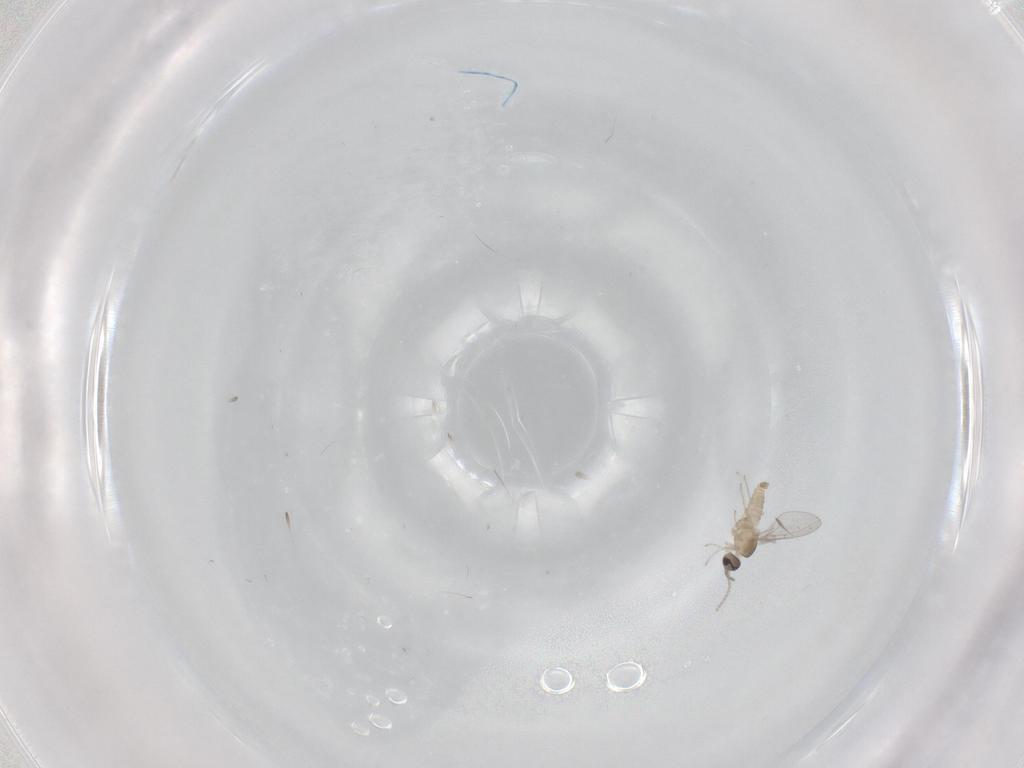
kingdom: Animalia
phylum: Arthropoda
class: Insecta
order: Diptera
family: Cecidomyiidae
